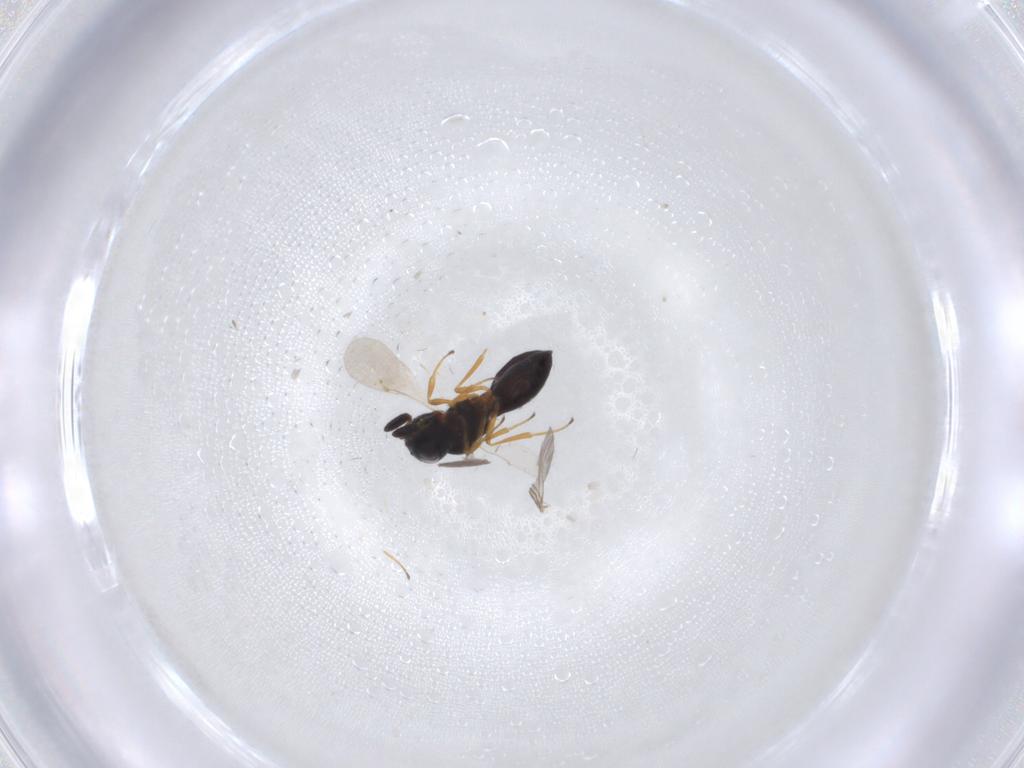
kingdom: Animalia
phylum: Arthropoda
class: Insecta
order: Hymenoptera
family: Scelionidae
